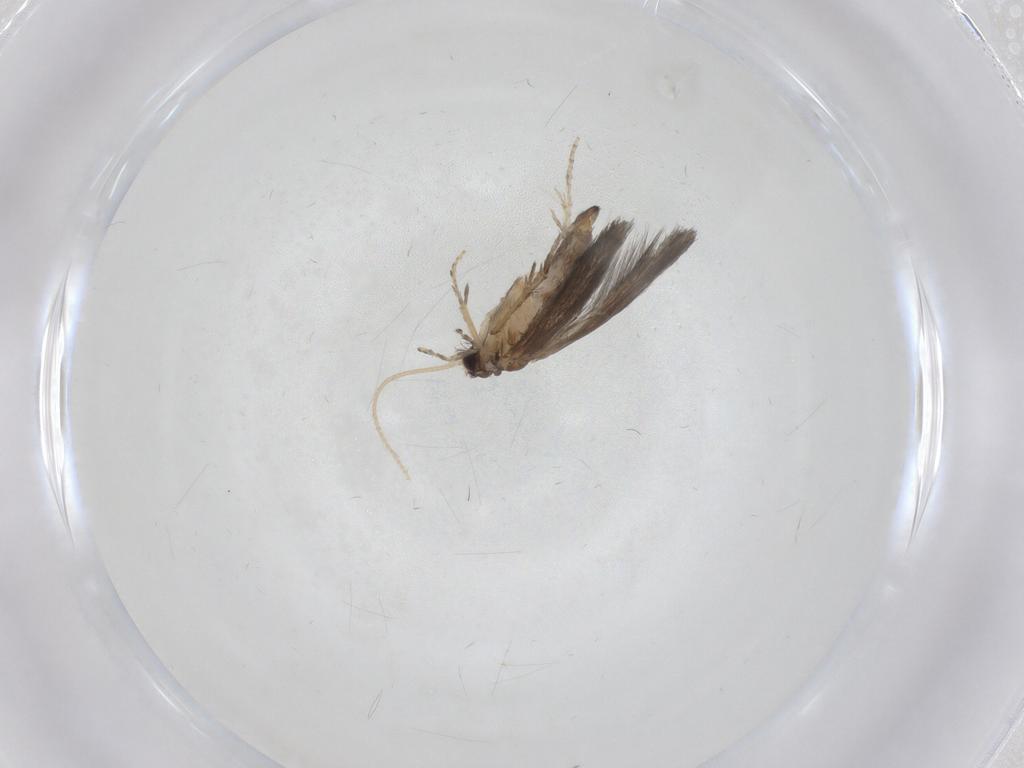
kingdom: Animalia
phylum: Arthropoda
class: Insecta
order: Trichoptera
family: Hydroptilidae
